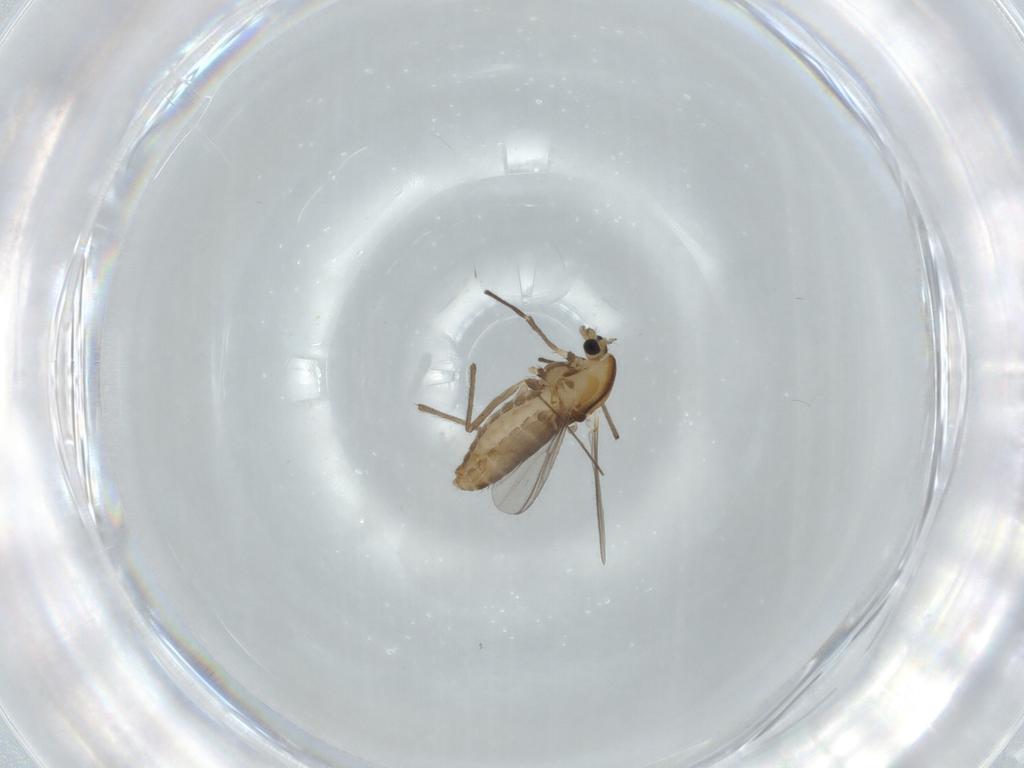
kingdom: Animalia
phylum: Arthropoda
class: Insecta
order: Diptera
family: Chironomidae
